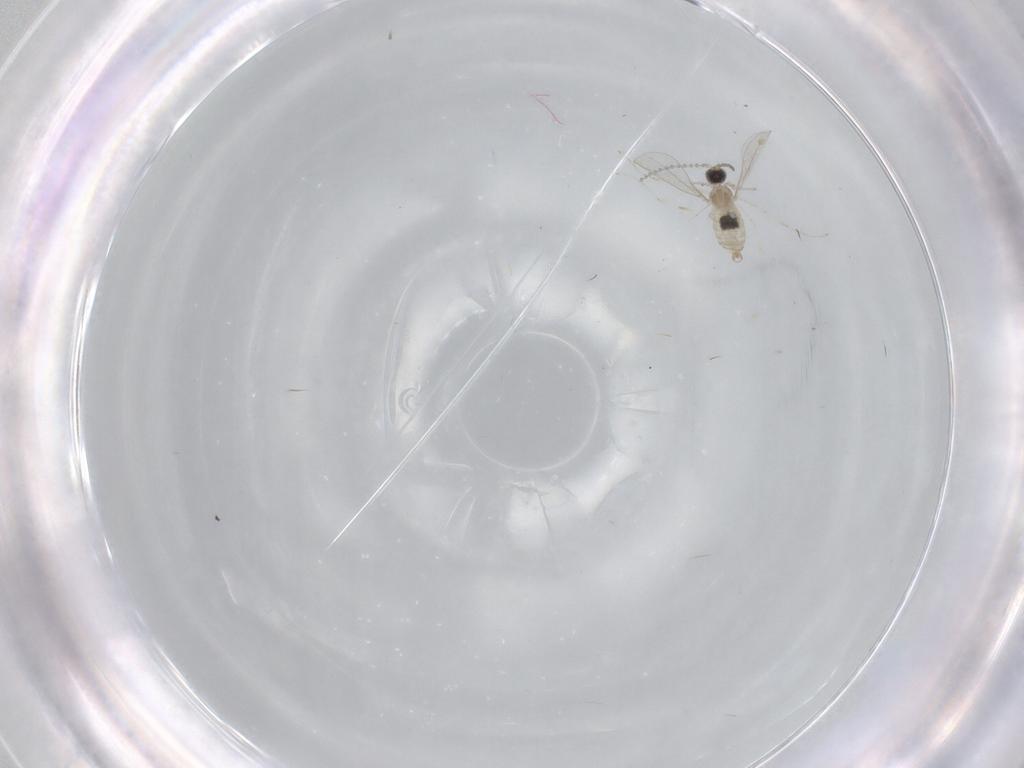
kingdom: Animalia
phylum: Arthropoda
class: Insecta
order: Diptera
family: Cecidomyiidae
